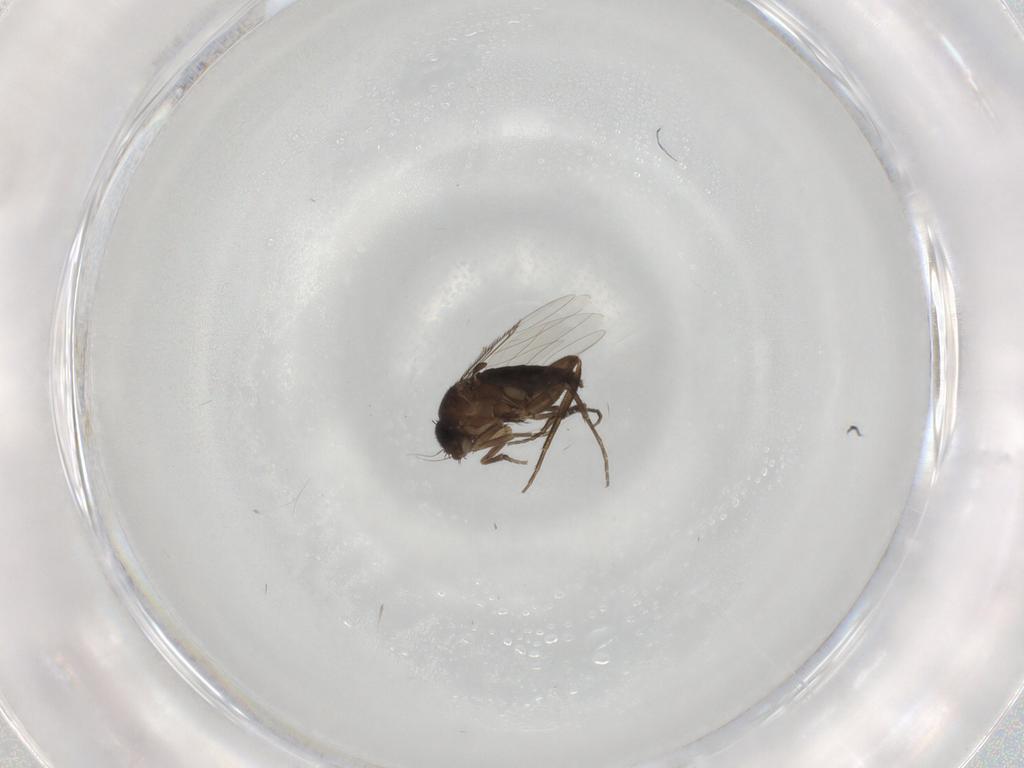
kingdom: Animalia
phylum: Arthropoda
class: Insecta
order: Diptera
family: Phoridae
